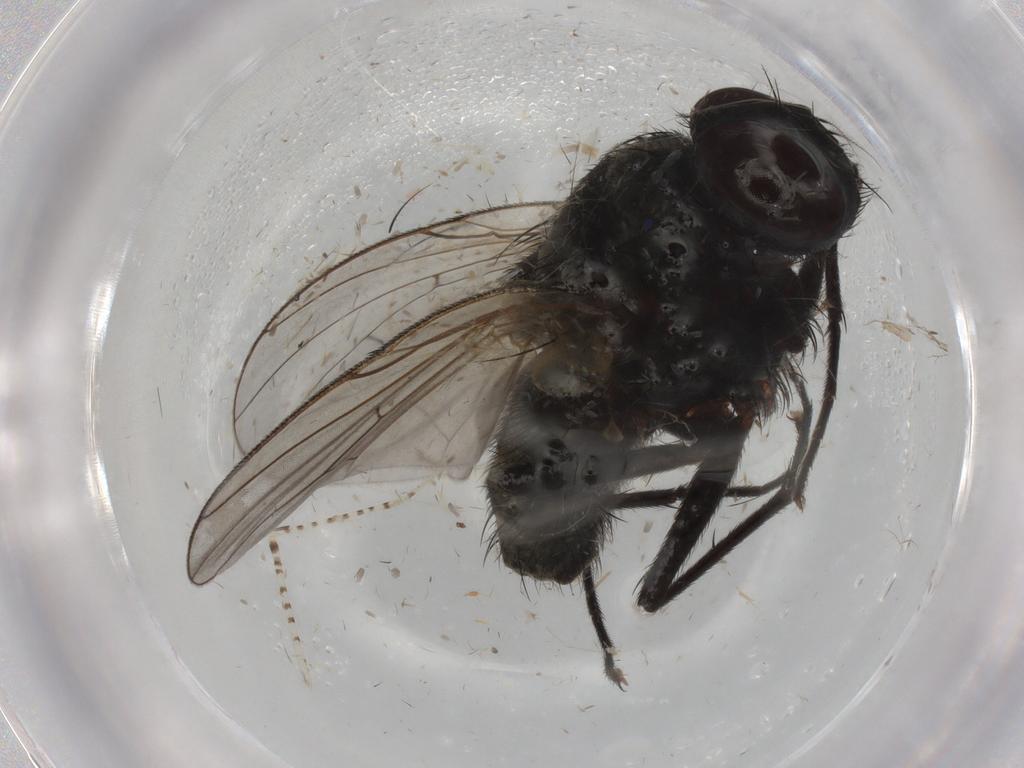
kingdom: Animalia
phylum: Arthropoda
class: Insecta
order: Diptera
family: Muscidae
